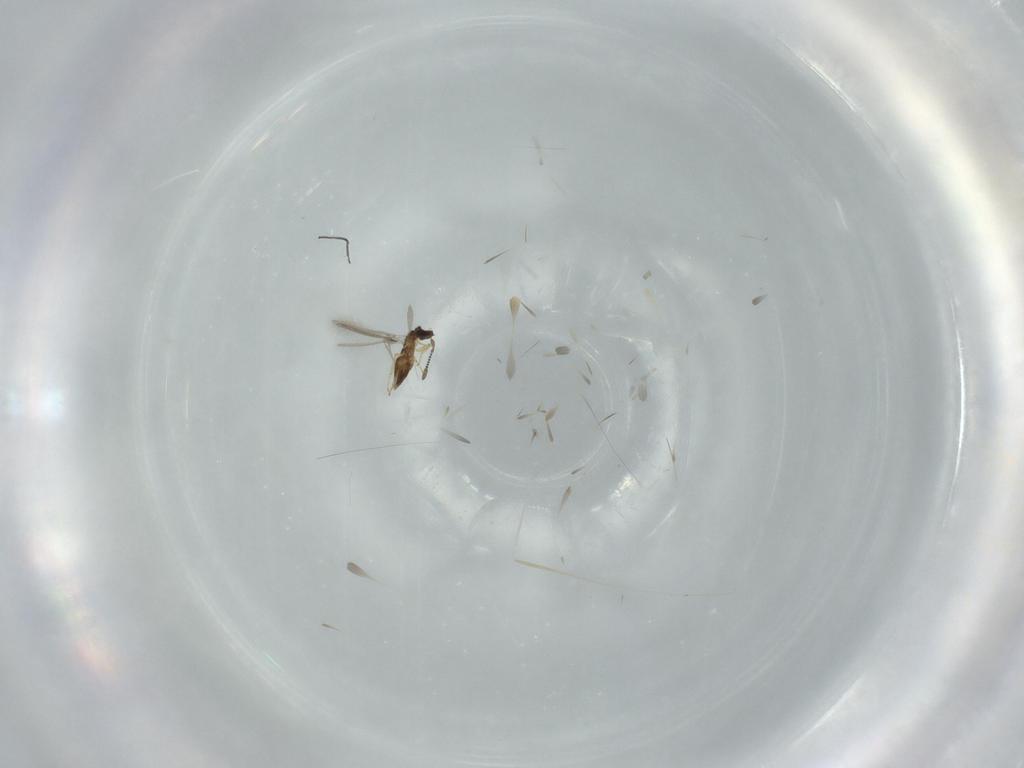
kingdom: Animalia
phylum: Arthropoda
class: Insecta
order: Hymenoptera
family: Mymaridae
